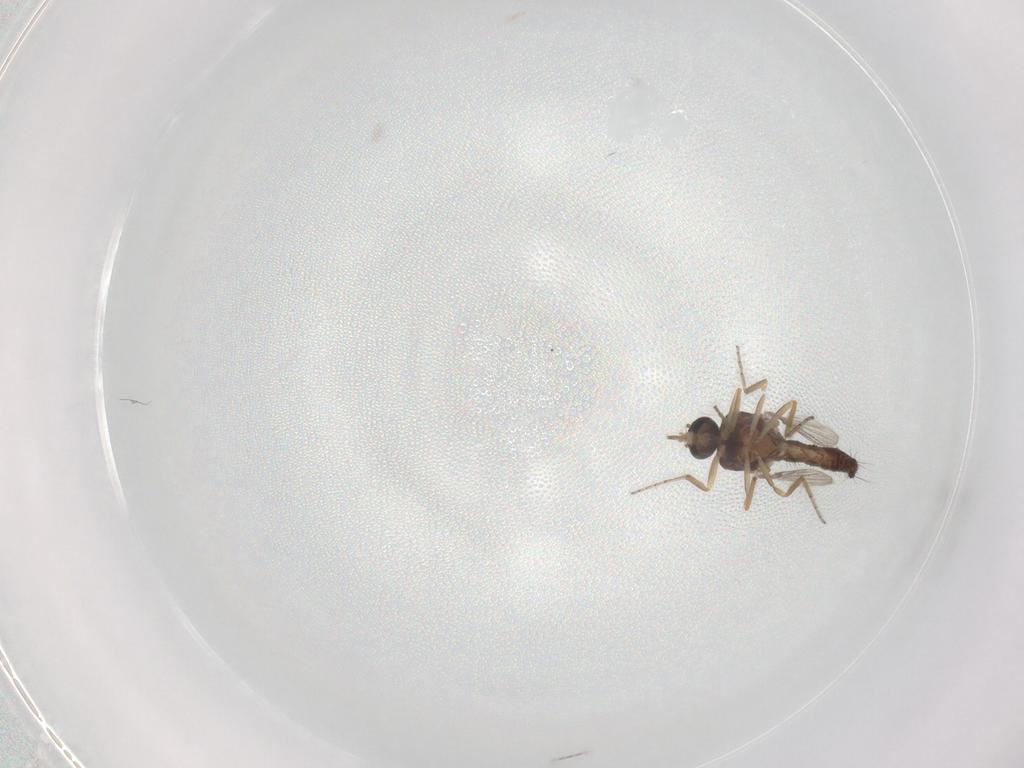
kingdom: Animalia
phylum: Arthropoda
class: Insecta
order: Diptera
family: Ceratopogonidae
